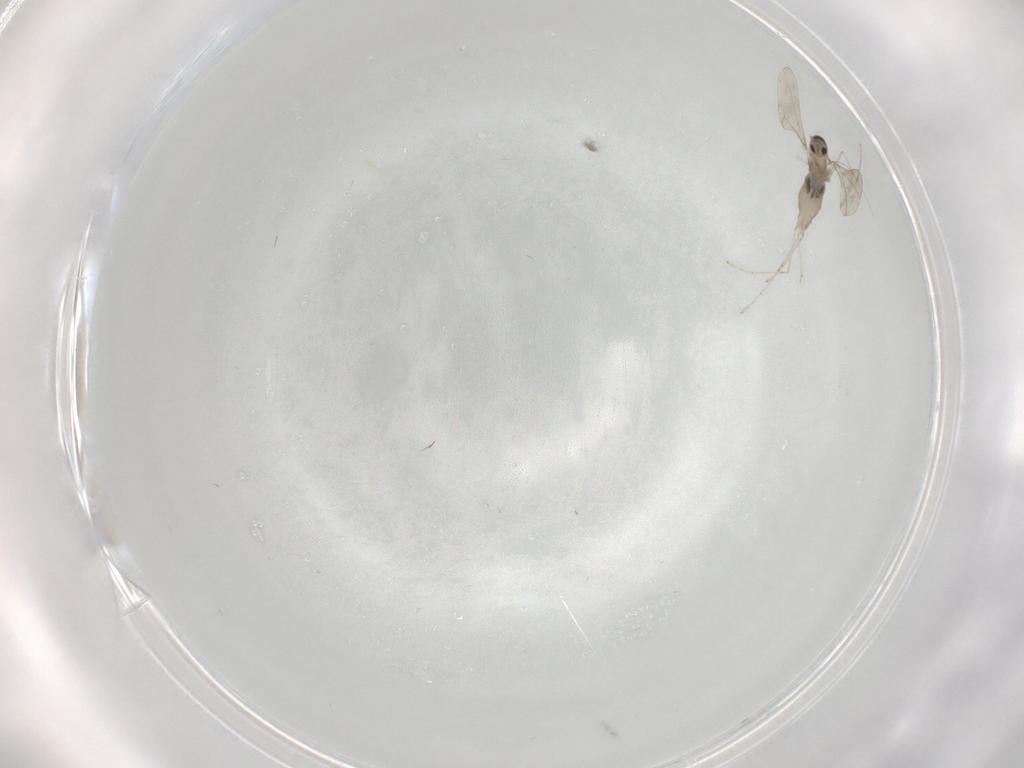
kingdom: Animalia
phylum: Arthropoda
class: Insecta
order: Diptera
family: Cecidomyiidae
